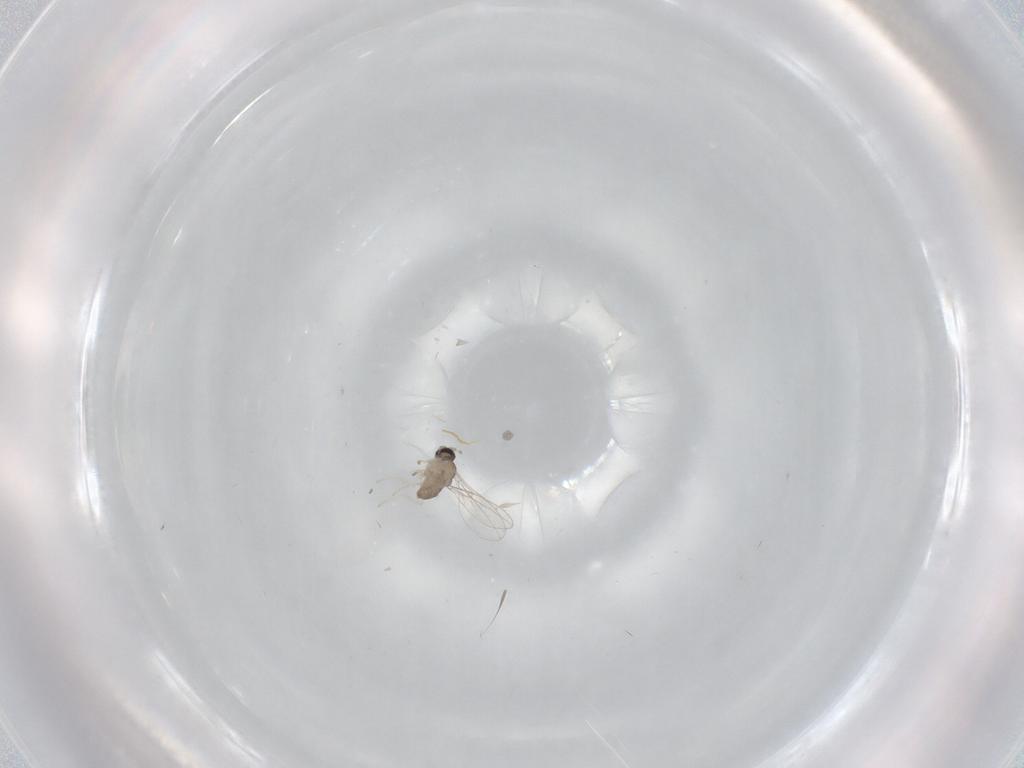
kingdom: Animalia
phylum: Arthropoda
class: Insecta
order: Diptera
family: Cecidomyiidae
